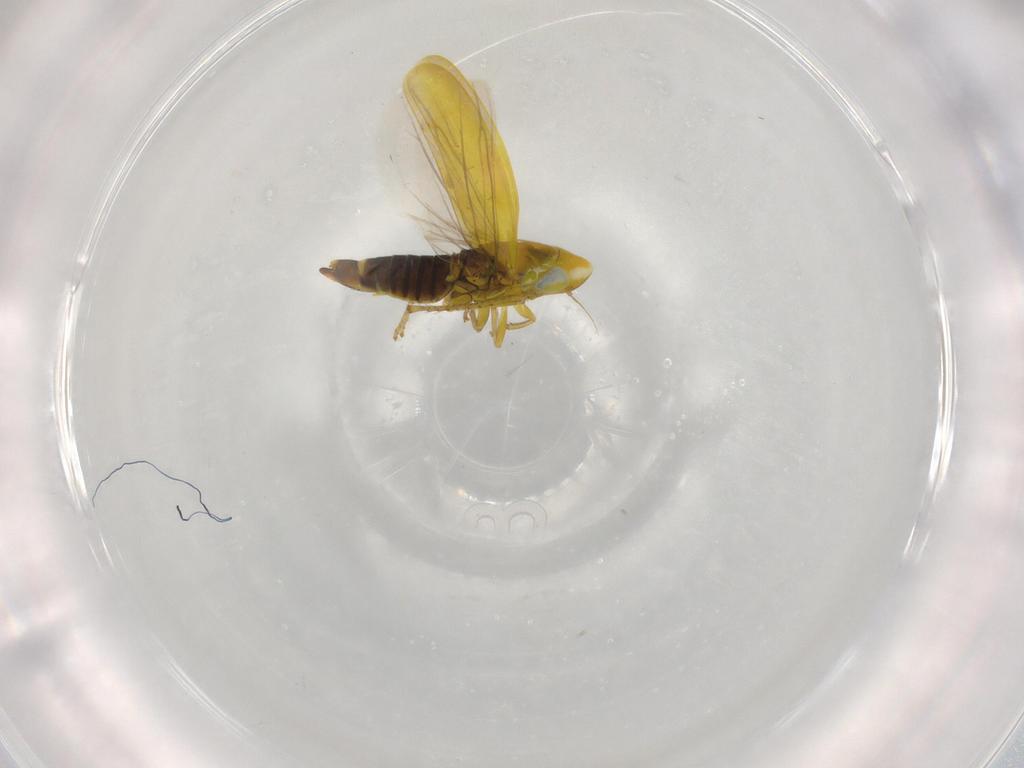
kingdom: Animalia
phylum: Arthropoda
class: Insecta
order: Hemiptera
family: Cicadellidae
